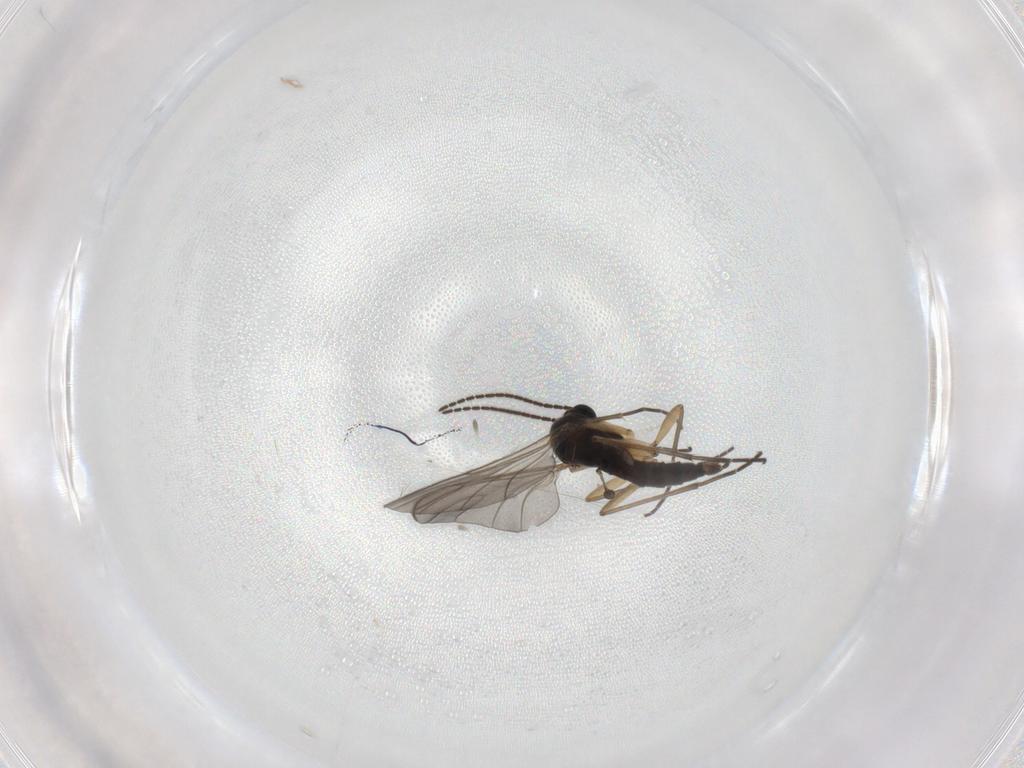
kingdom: Animalia
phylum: Arthropoda
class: Insecta
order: Diptera
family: Sciaridae
